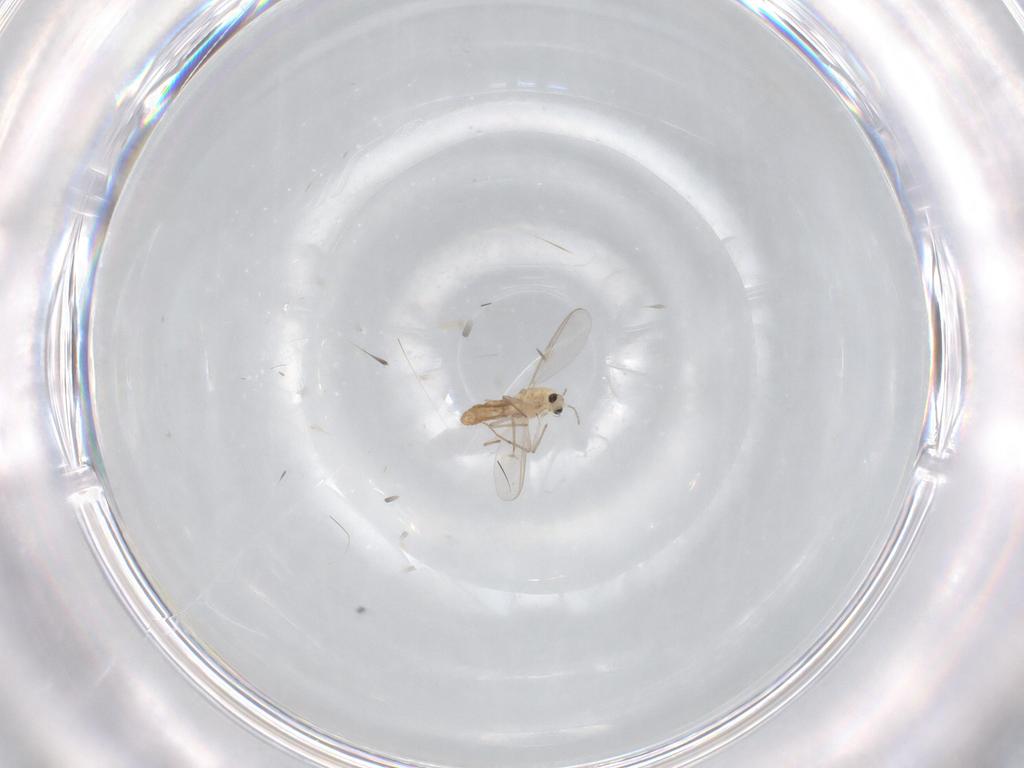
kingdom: Animalia
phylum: Arthropoda
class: Insecta
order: Diptera
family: Chironomidae
